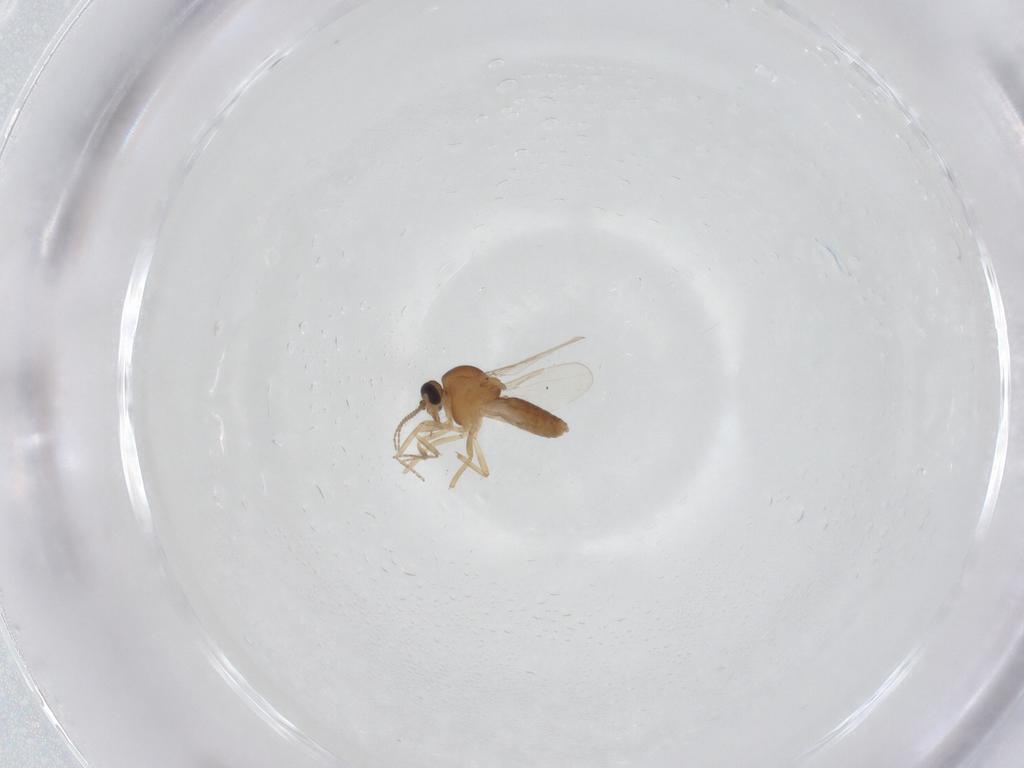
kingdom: Animalia
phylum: Arthropoda
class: Insecta
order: Diptera
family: Ceratopogonidae
